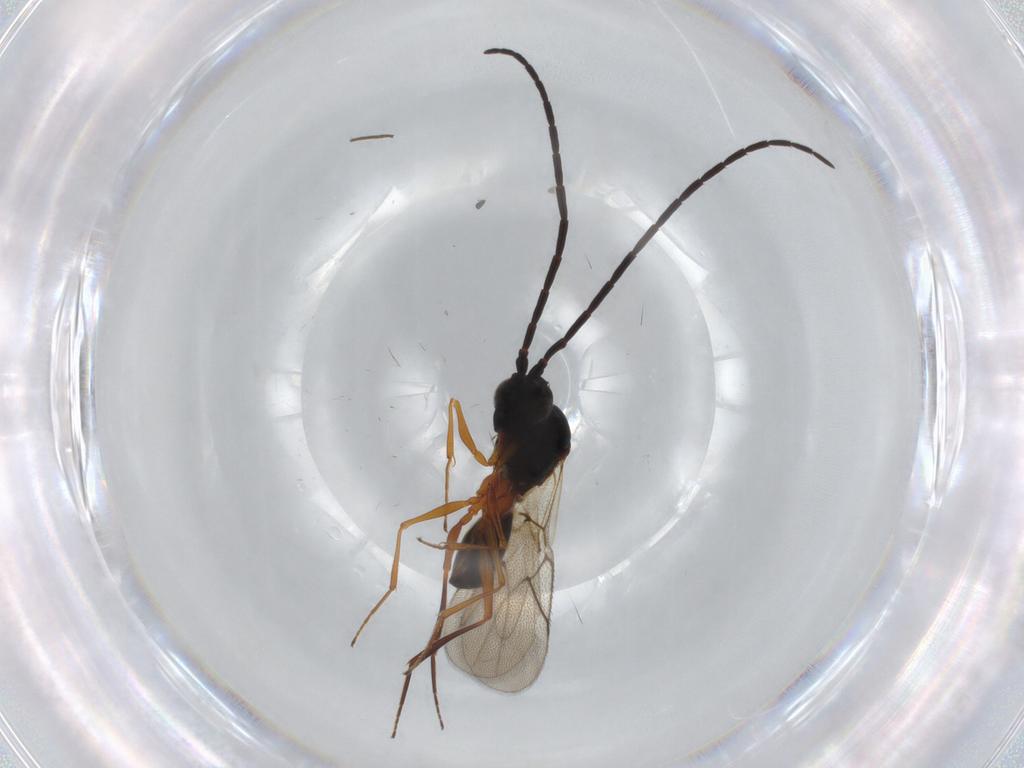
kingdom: Animalia
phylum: Arthropoda
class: Insecta
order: Hymenoptera
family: Figitidae
